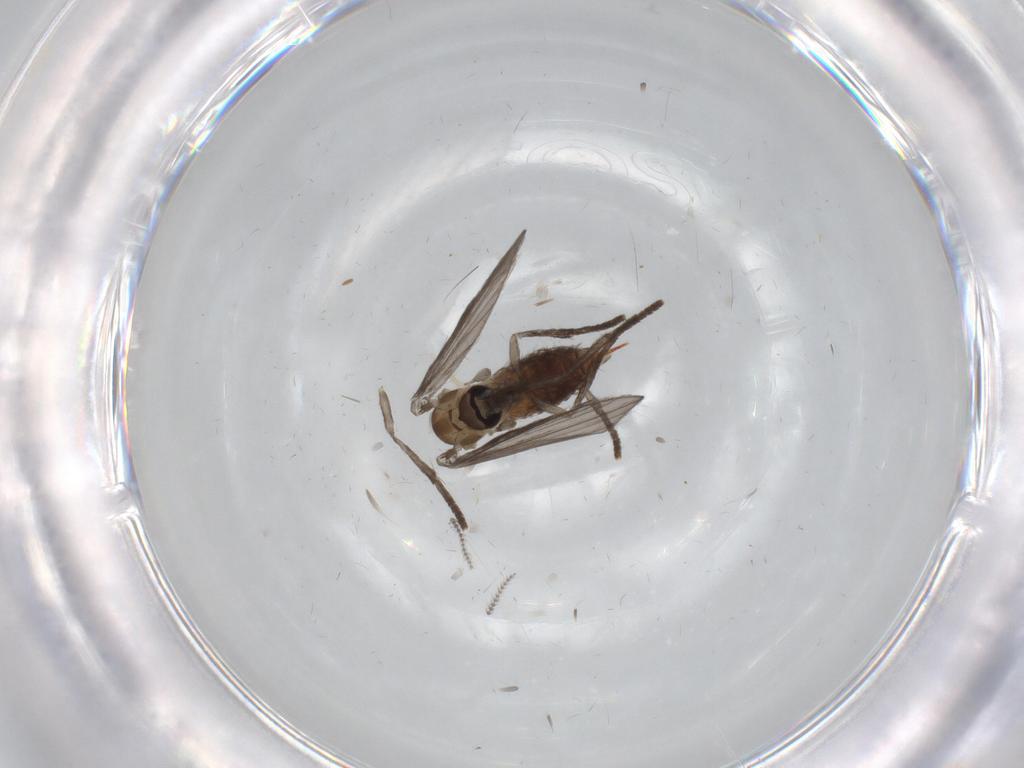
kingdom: Animalia
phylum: Arthropoda
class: Insecta
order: Diptera
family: Psychodidae
